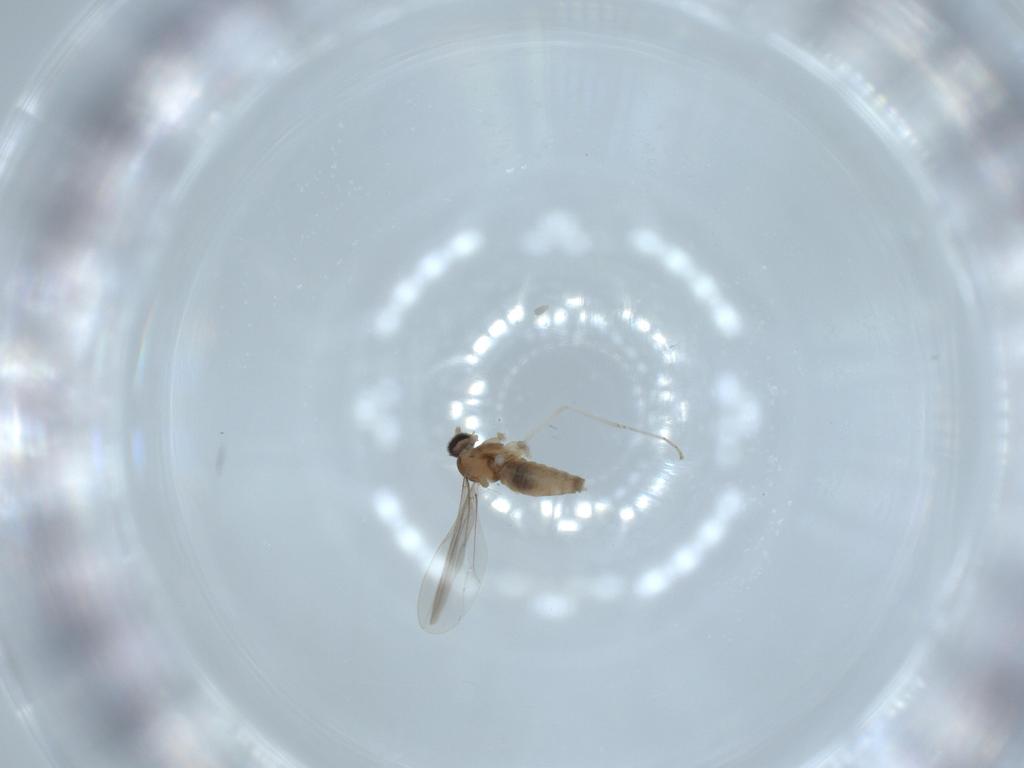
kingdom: Animalia
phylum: Arthropoda
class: Insecta
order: Diptera
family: Cecidomyiidae
